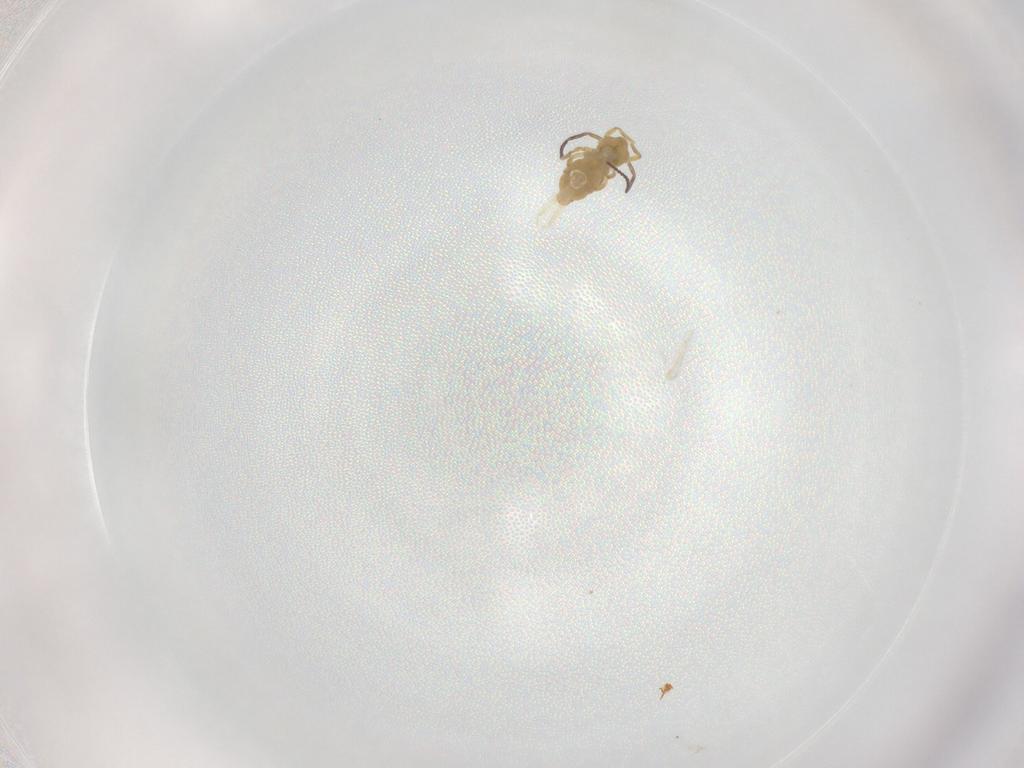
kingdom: Animalia
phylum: Arthropoda
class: Collembola
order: Symphypleona
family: Bourletiellidae
